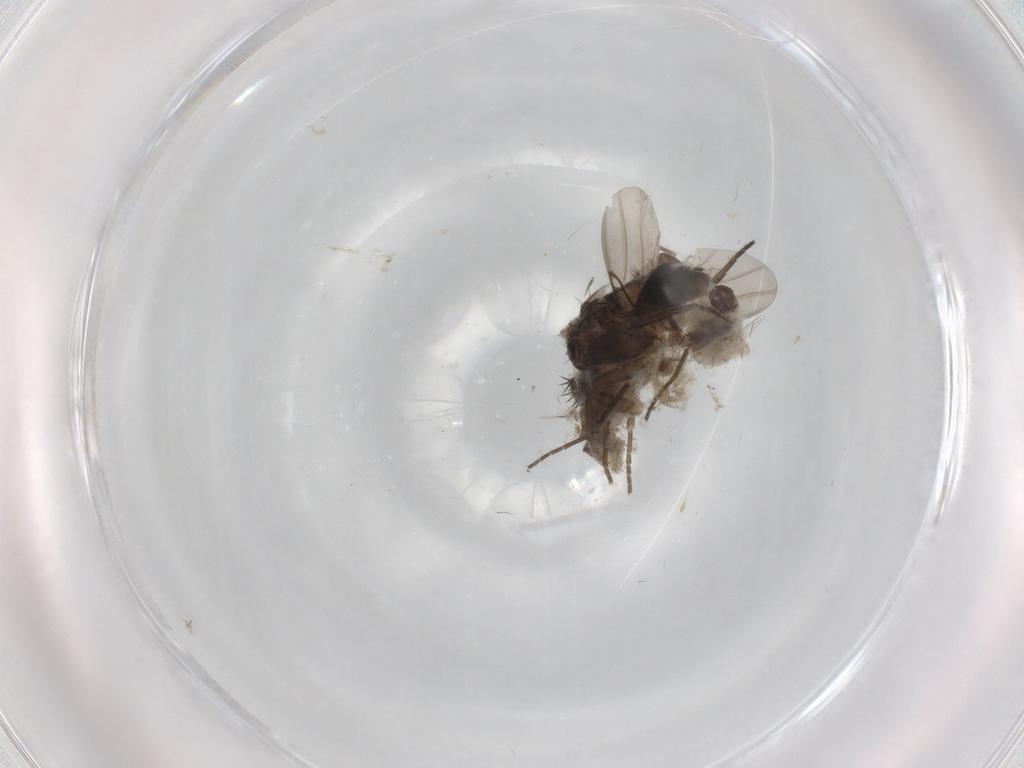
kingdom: Animalia
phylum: Arthropoda
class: Insecta
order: Diptera
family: Phoridae
